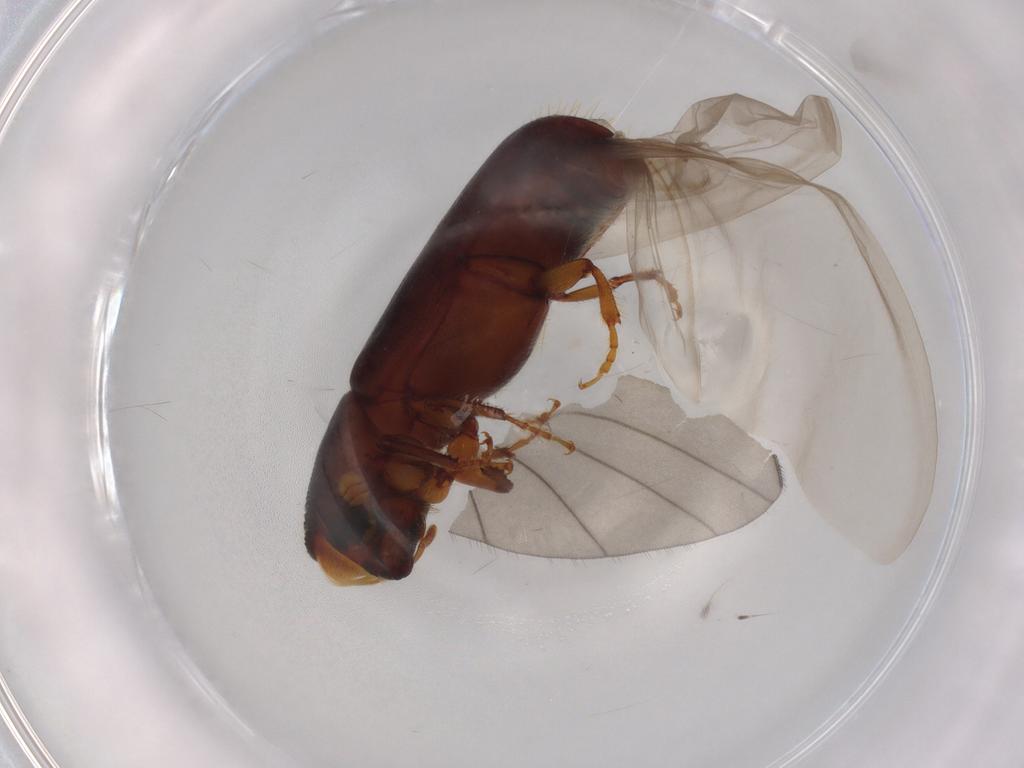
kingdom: Animalia
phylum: Arthropoda
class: Insecta
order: Coleoptera
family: Curculionidae
